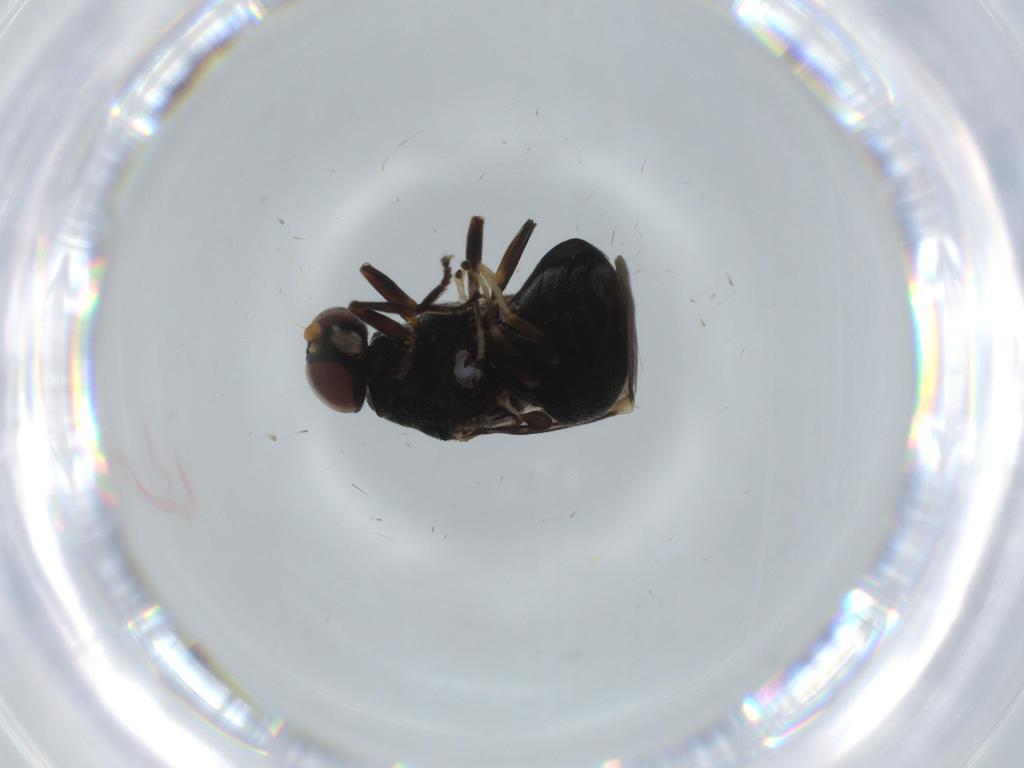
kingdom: Animalia
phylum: Arthropoda
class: Insecta
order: Diptera
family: Stratiomyidae
